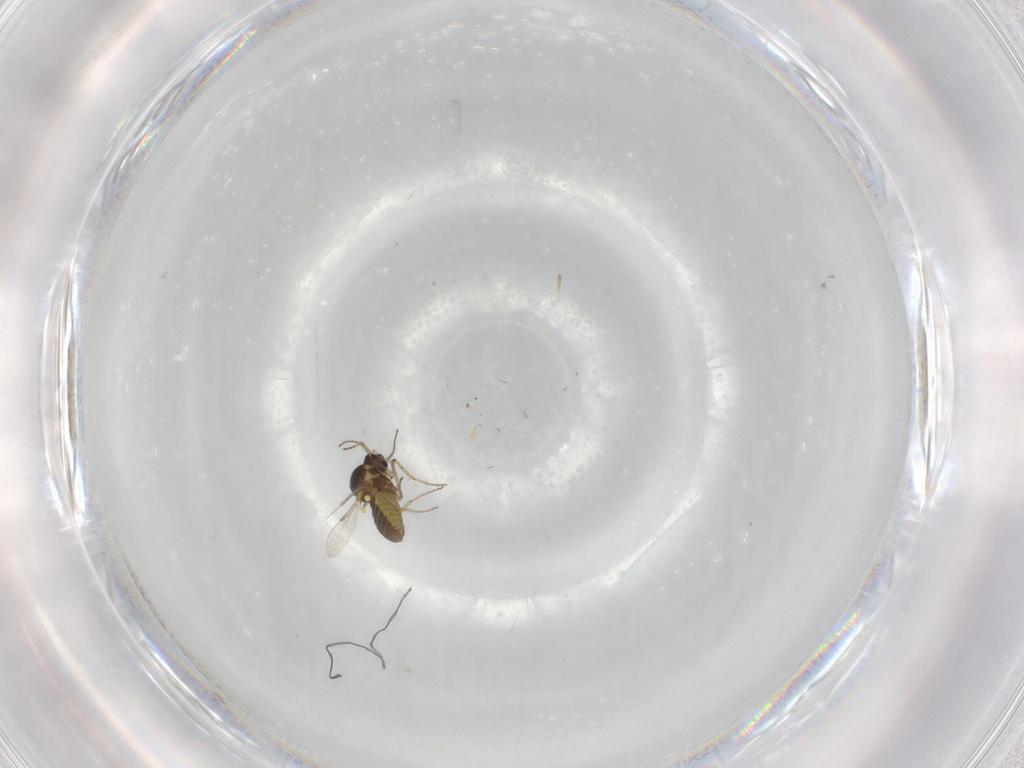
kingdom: Animalia
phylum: Arthropoda
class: Insecta
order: Diptera
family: Ceratopogonidae
